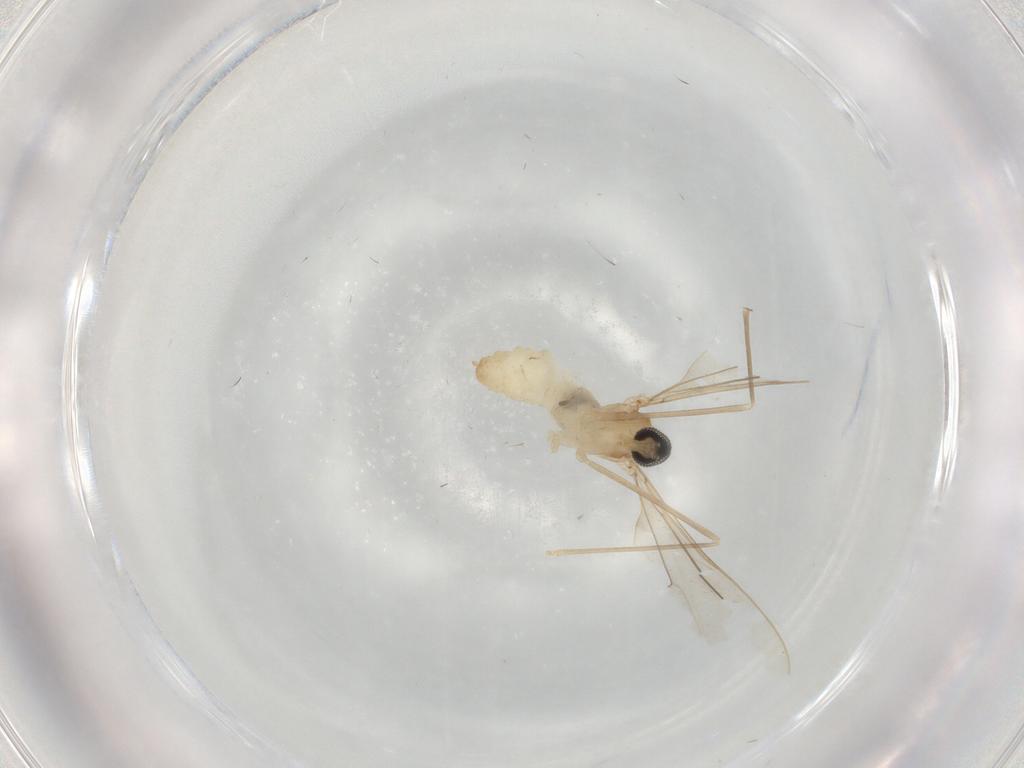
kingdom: Animalia
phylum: Arthropoda
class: Insecta
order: Diptera
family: Cecidomyiidae
